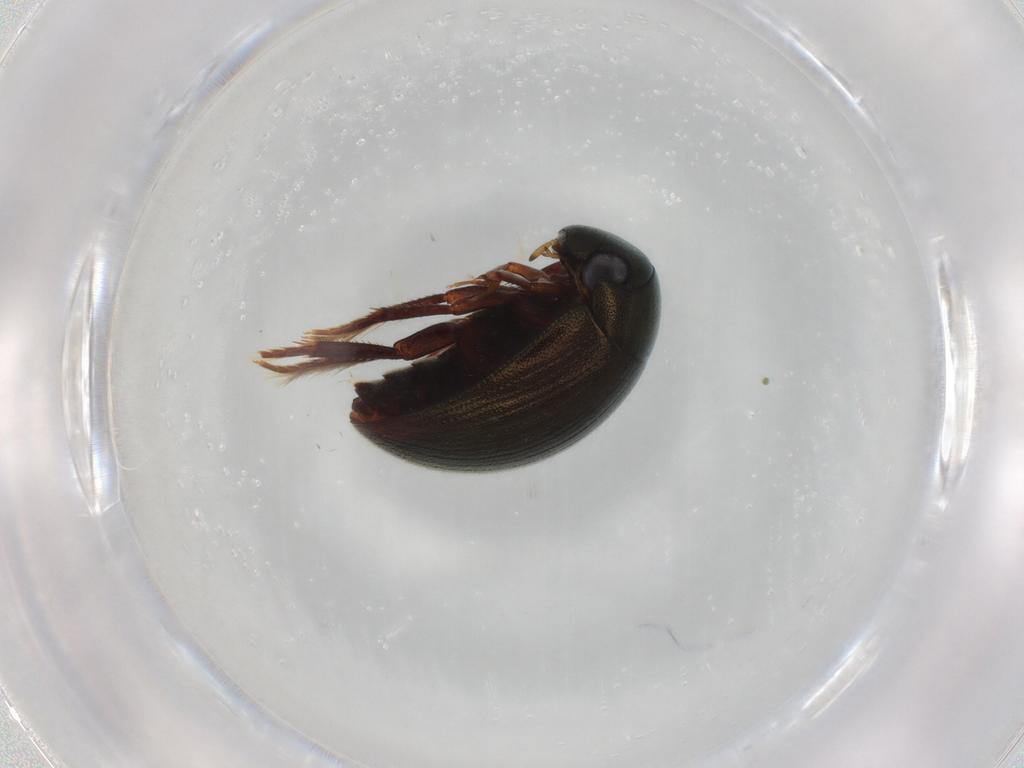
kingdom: Animalia
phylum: Arthropoda
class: Insecta
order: Coleoptera
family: Hydrophilidae
